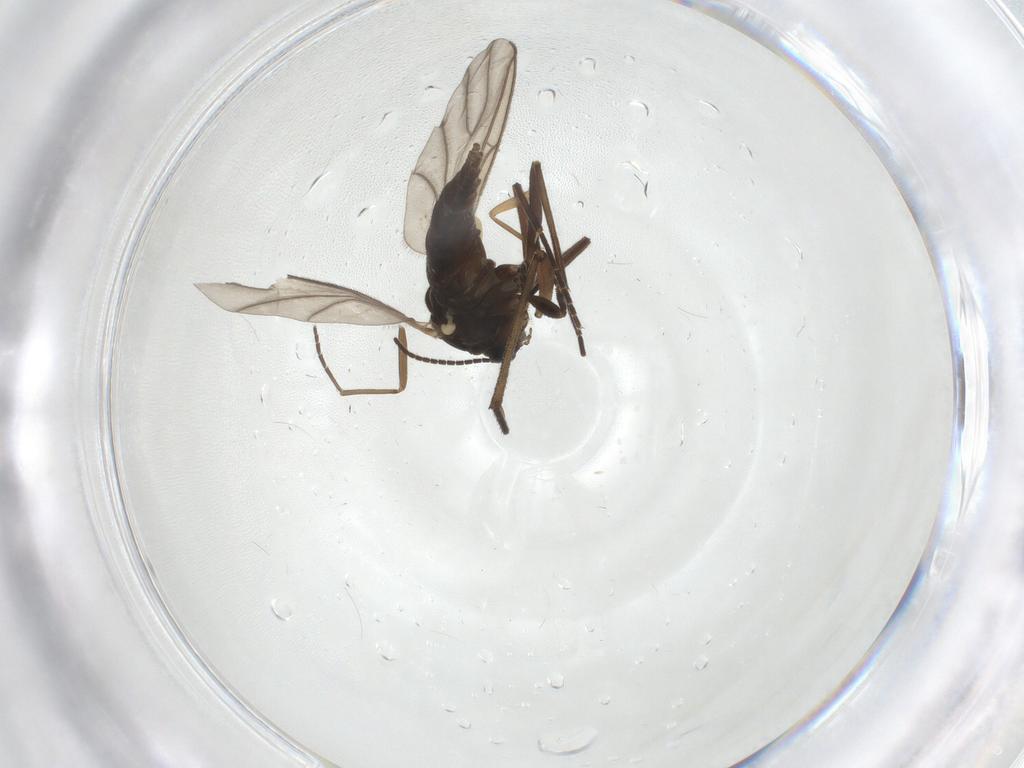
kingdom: Animalia
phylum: Arthropoda
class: Insecta
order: Diptera
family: Sciaridae
